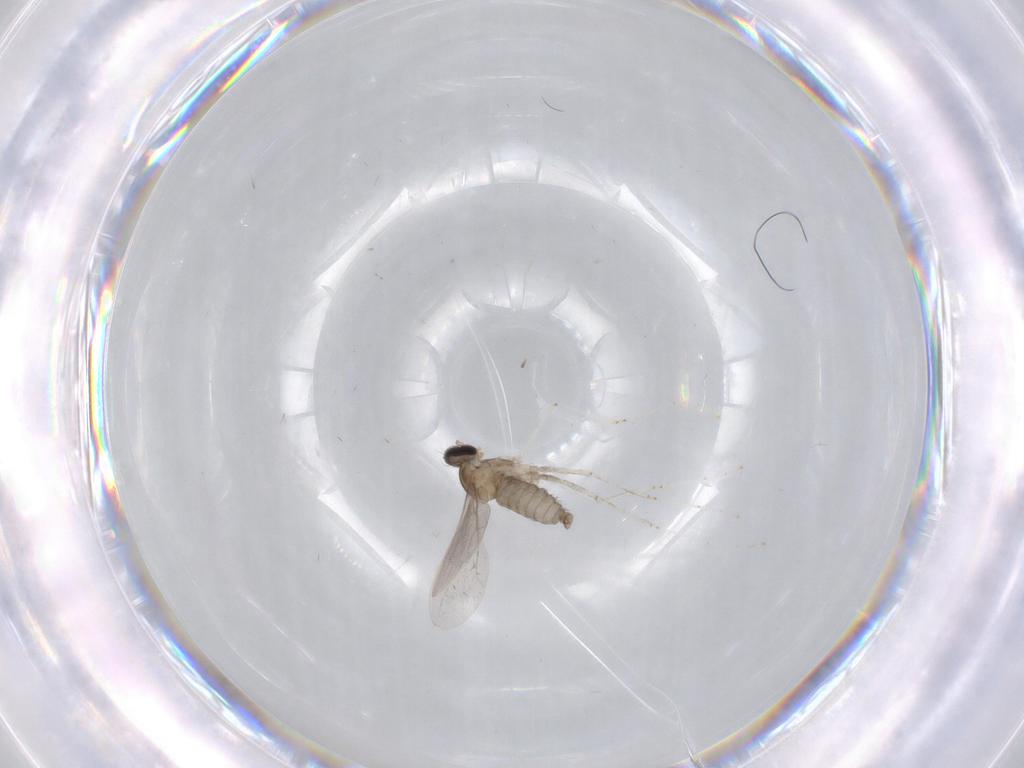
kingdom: Animalia
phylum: Arthropoda
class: Insecta
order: Diptera
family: Cecidomyiidae
